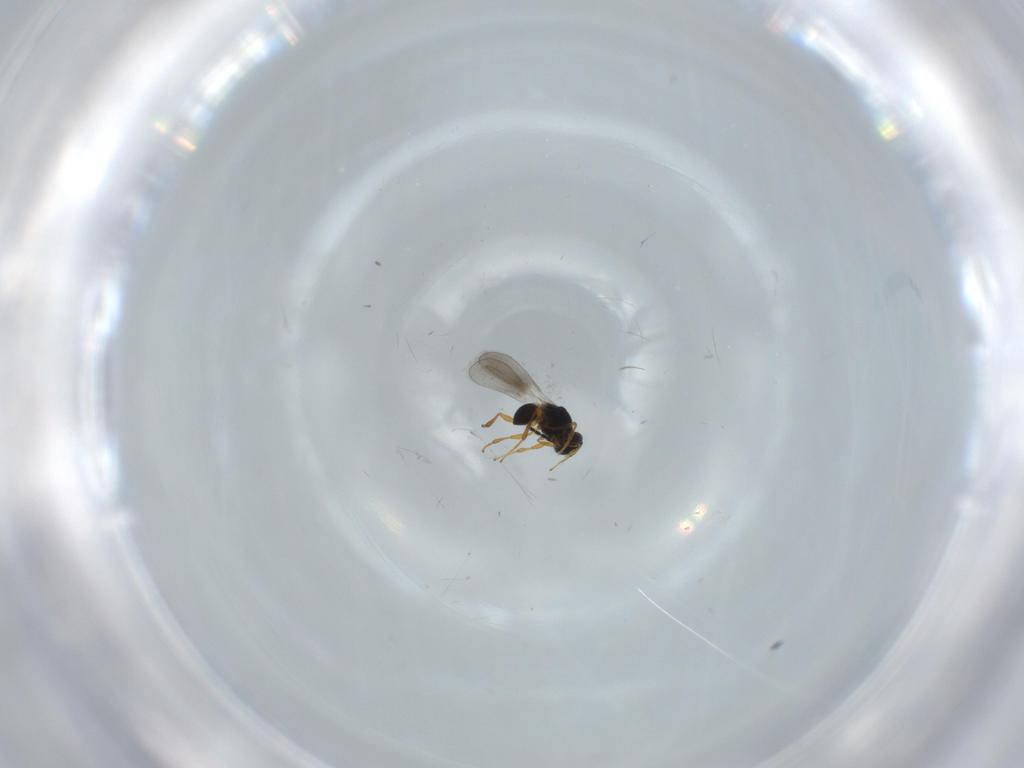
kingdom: Animalia
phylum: Arthropoda
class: Insecta
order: Hymenoptera
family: Platygastridae
